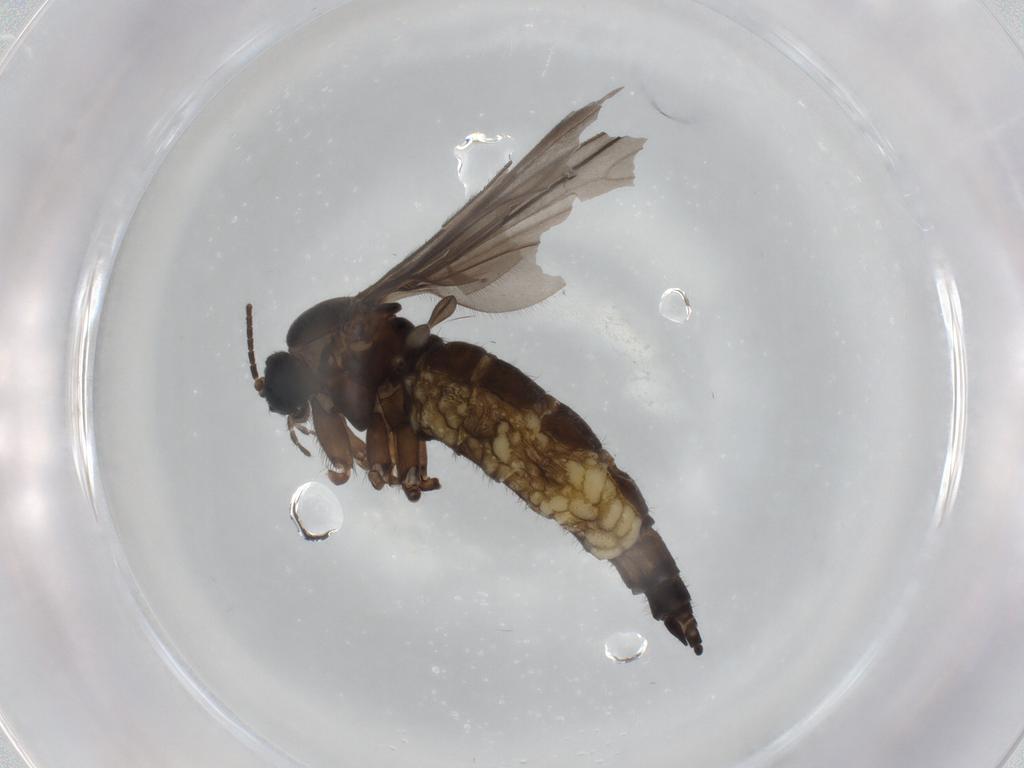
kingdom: Animalia
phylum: Arthropoda
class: Insecta
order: Diptera
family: Sciaridae
